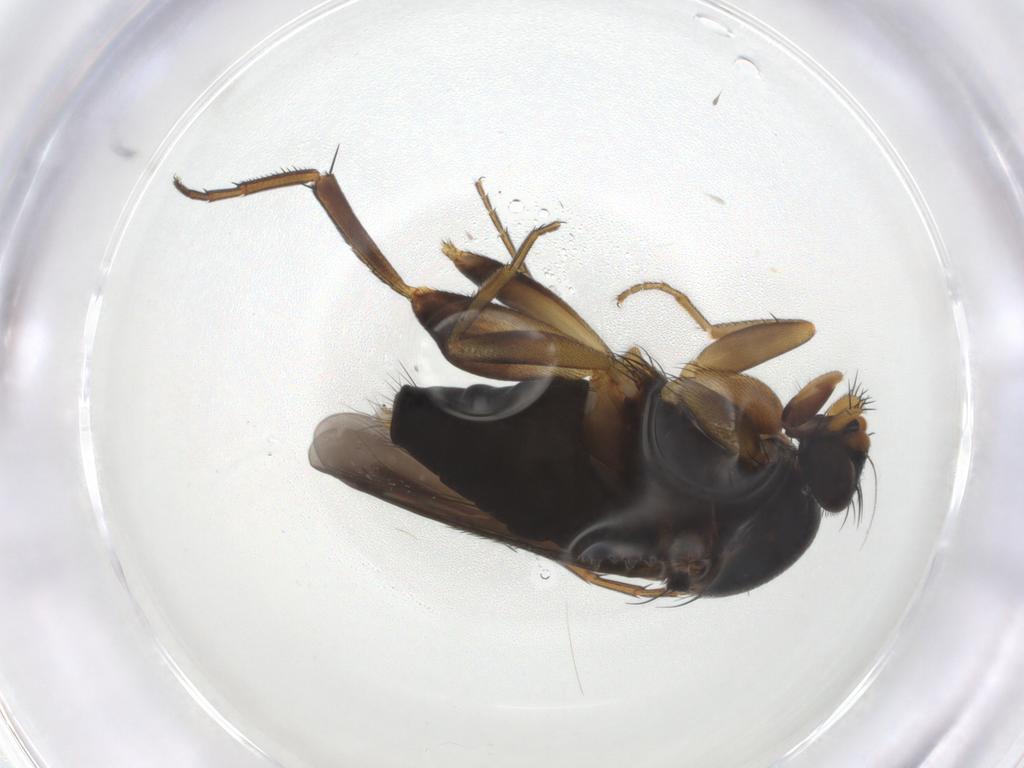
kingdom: Animalia
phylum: Arthropoda
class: Insecta
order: Diptera
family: Phoridae
